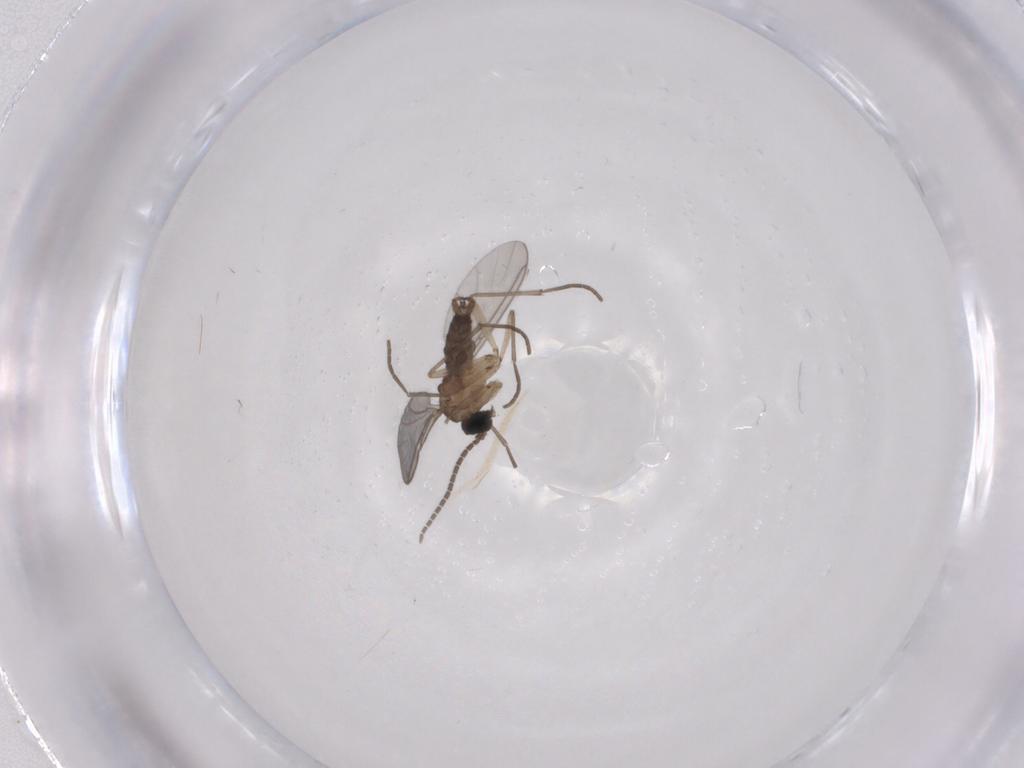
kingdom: Animalia
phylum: Arthropoda
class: Insecta
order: Diptera
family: Sciaridae
